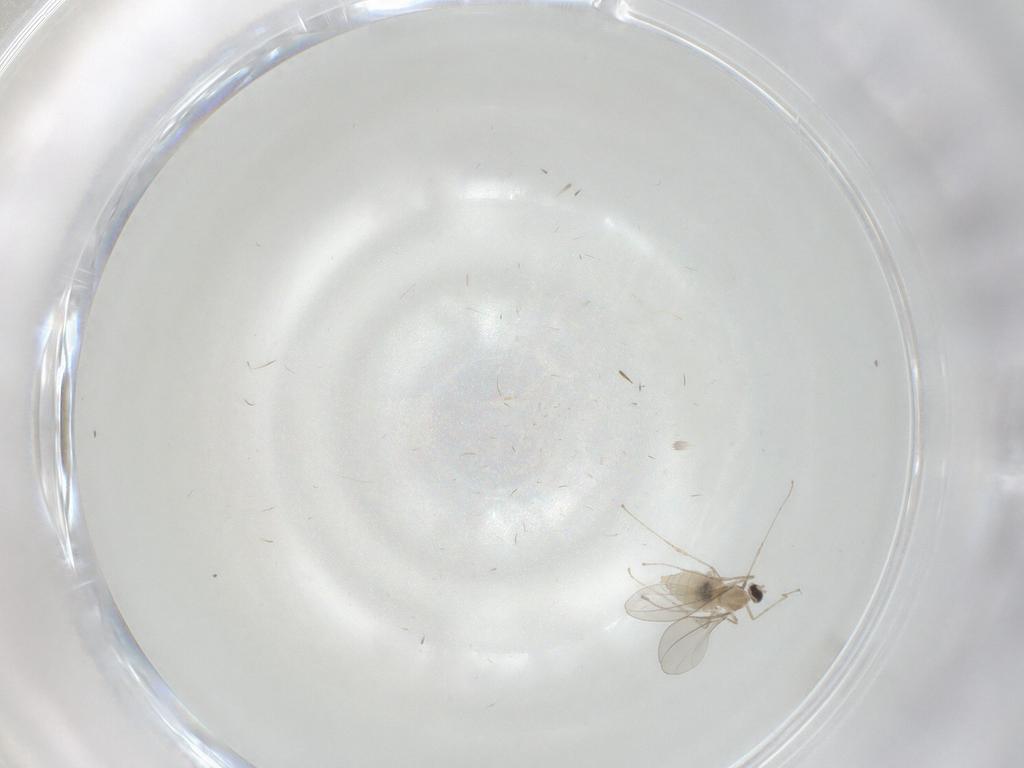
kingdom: Animalia
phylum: Arthropoda
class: Insecta
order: Diptera
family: Cecidomyiidae
